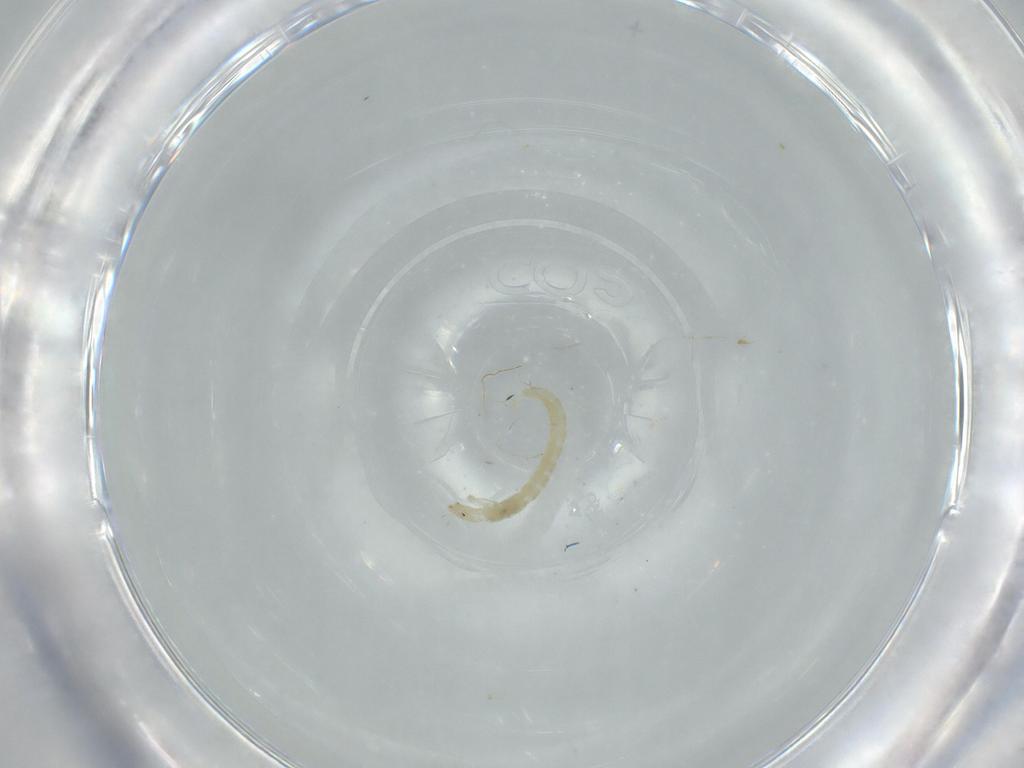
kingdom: Animalia
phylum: Arthropoda
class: Insecta
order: Diptera
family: Chironomidae
